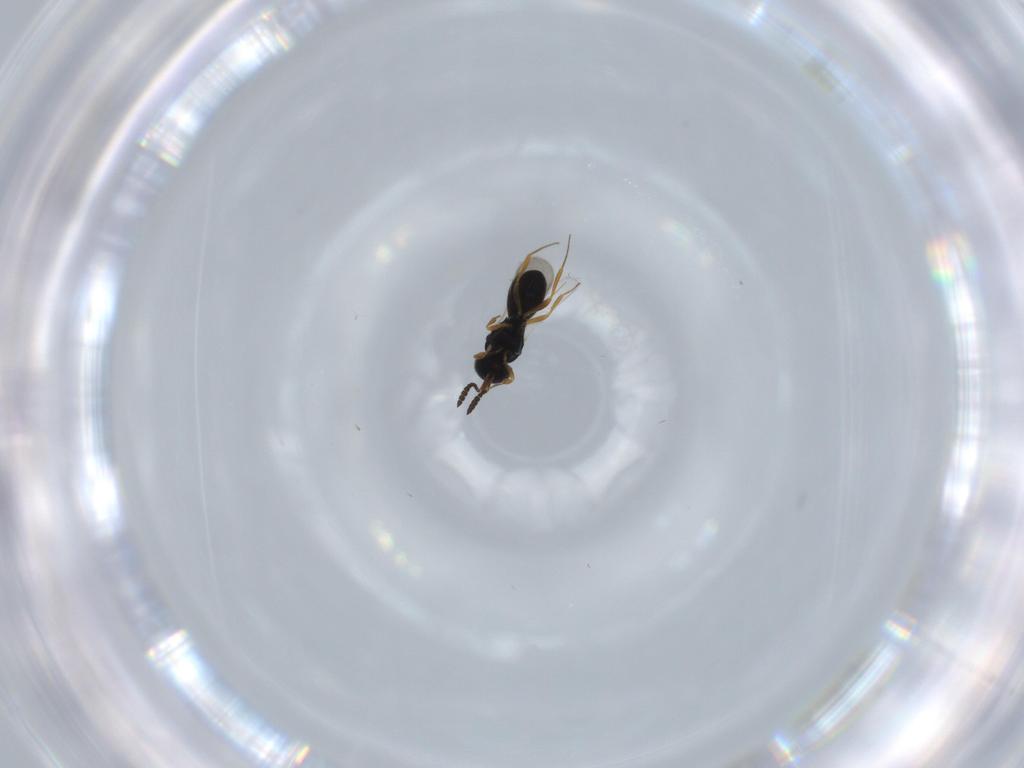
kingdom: Animalia
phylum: Arthropoda
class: Insecta
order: Hymenoptera
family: Scelionidae
